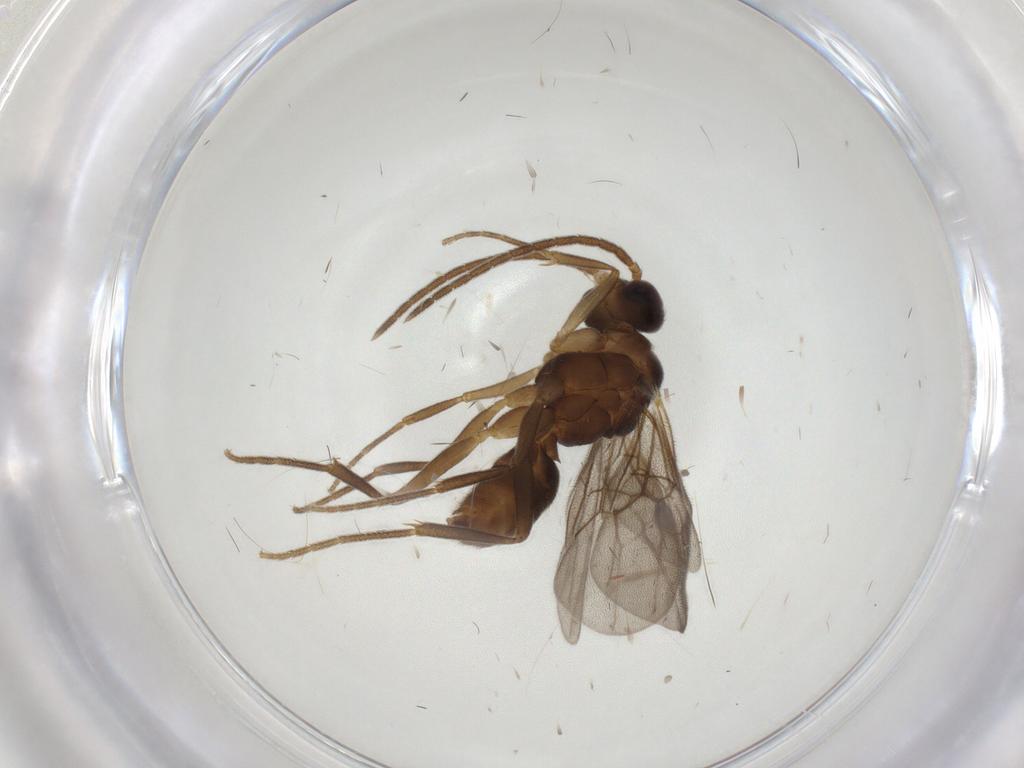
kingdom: Animalia
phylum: Arthropoda
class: Insecta
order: Hymenoptera
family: Formicidae
